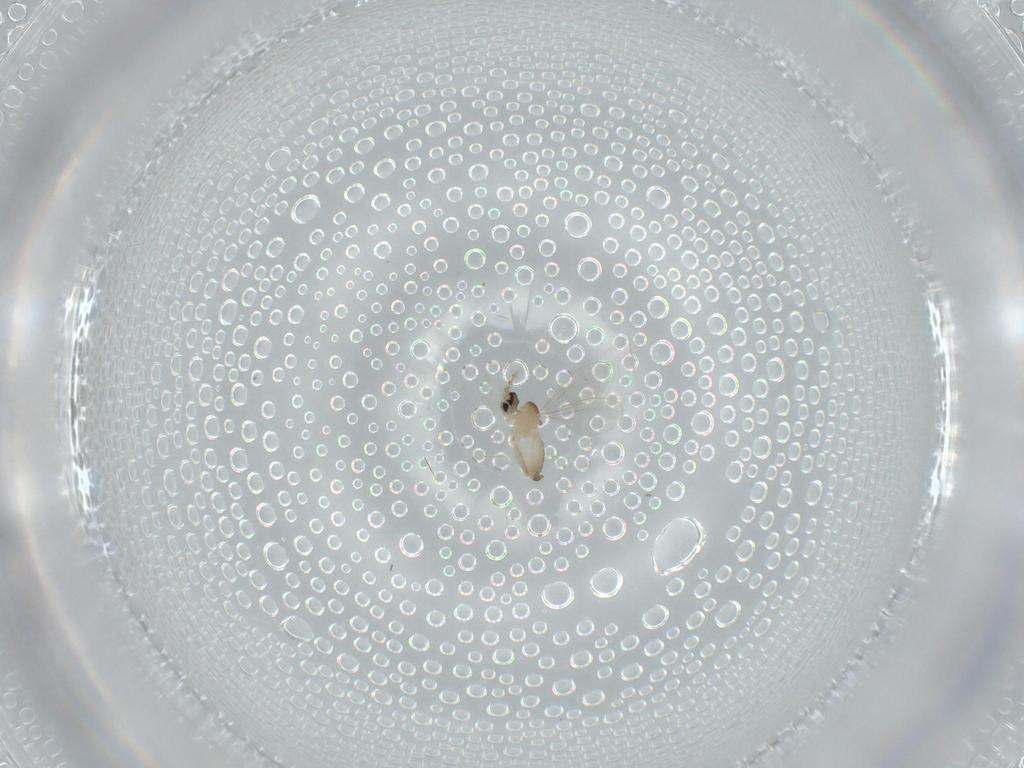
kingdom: Animalia
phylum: Arthropoda
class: Insecta
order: Diptera
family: Cecidomyiidae
